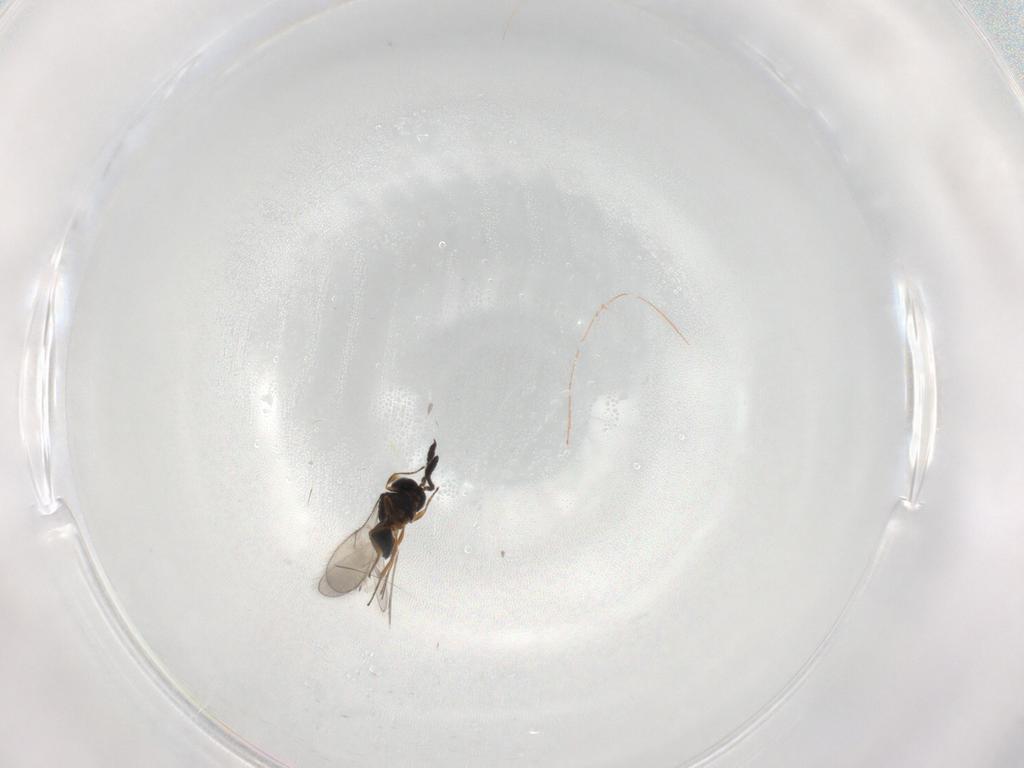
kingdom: Animalia
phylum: Arthropoda
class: Insecta
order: Hymenoptera
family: Scelionidae
